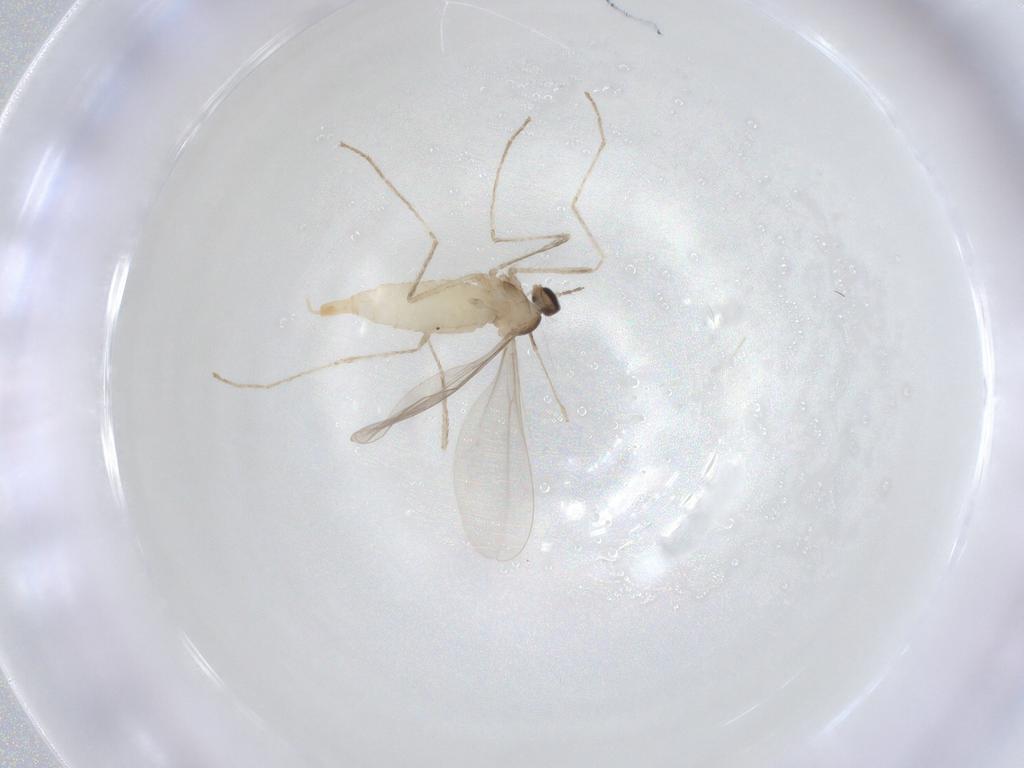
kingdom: Animalia
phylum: Arthropoda
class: Insecta
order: Diptera
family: Cecidomyiidae
